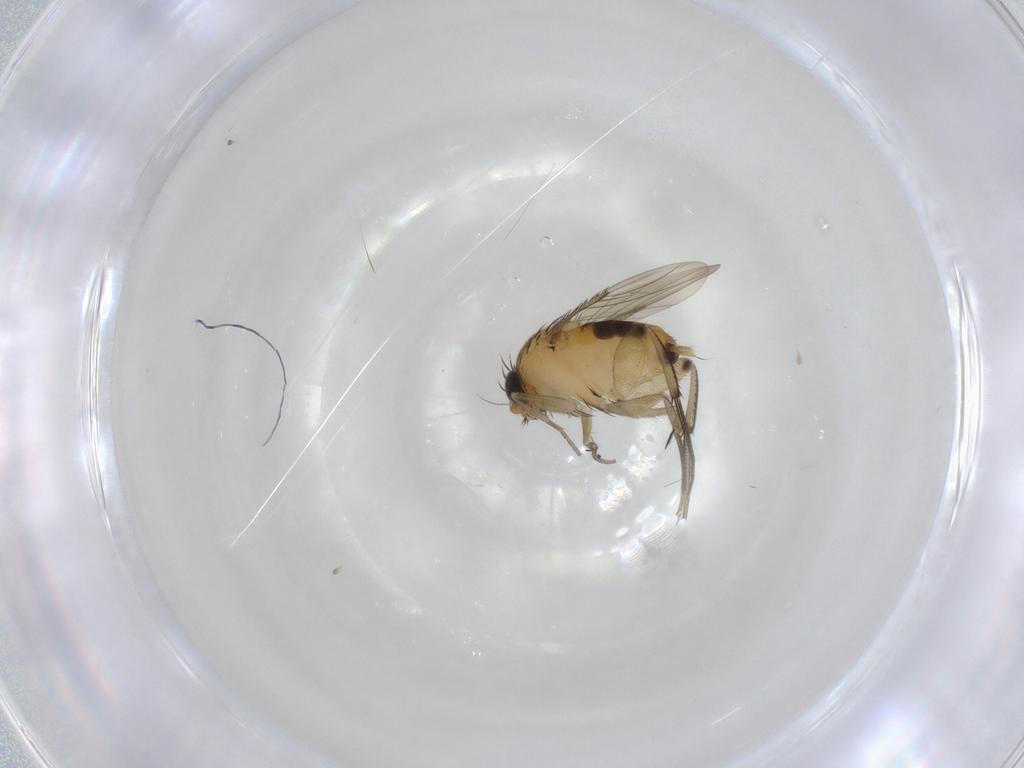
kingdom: Animalia
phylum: Arthropoda
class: Insecta
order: Diptera
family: Phoridae
